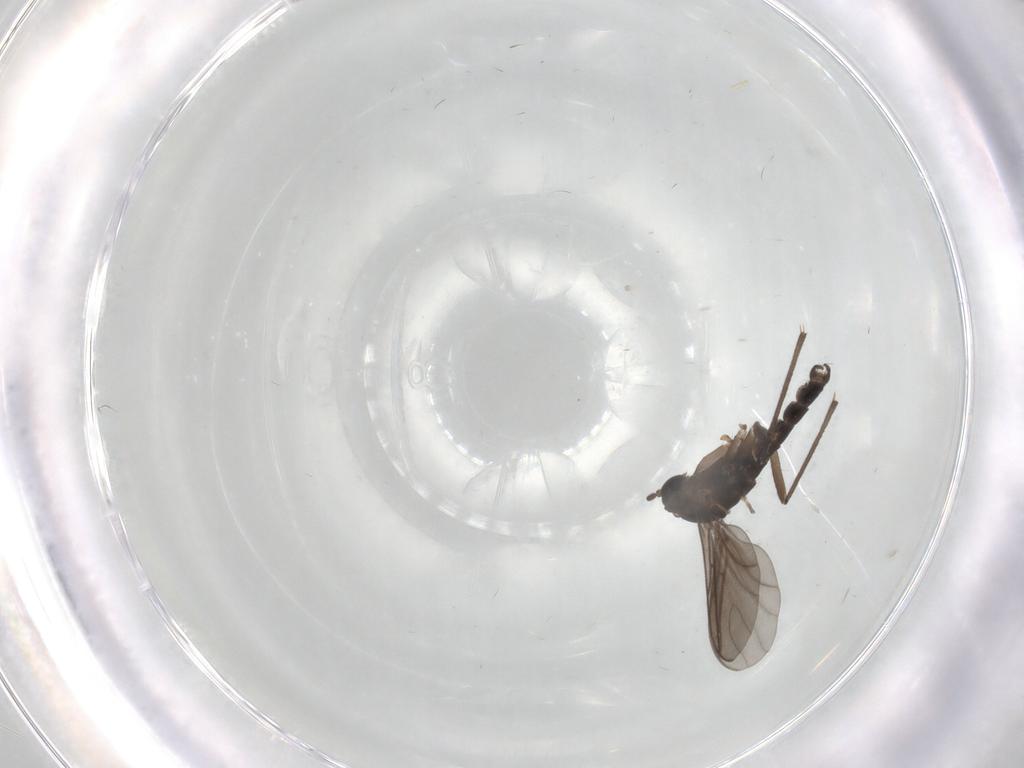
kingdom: Animalia
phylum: Arthropoda
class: Insecta
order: Diptera
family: Sciaridae
